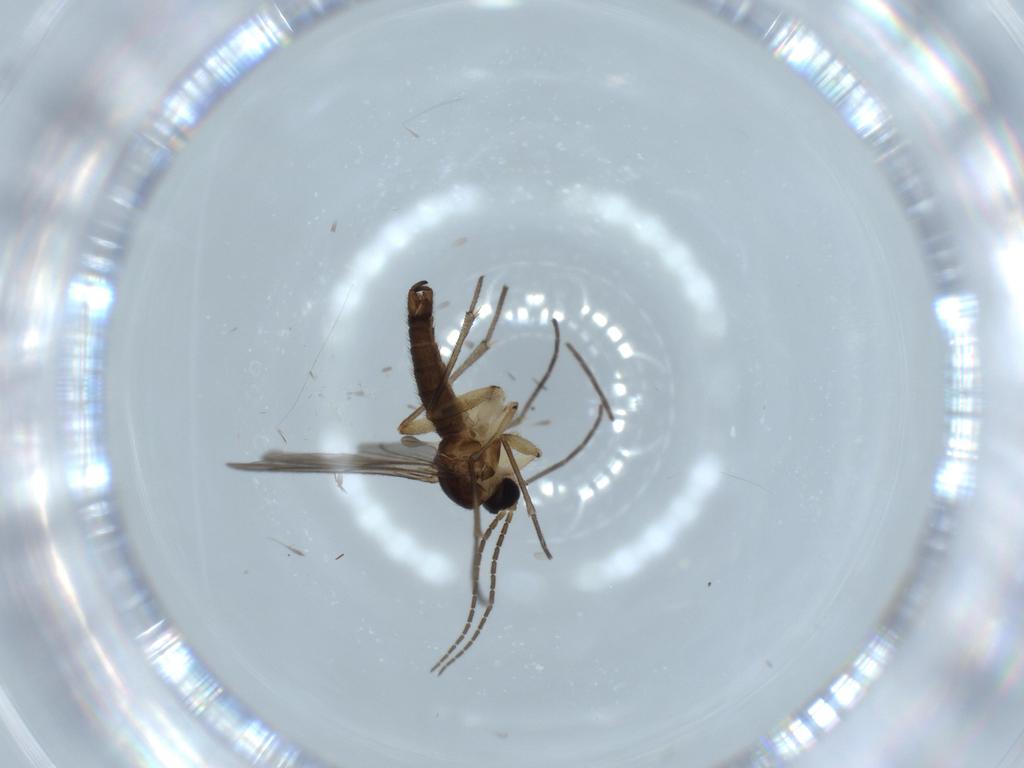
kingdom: Animalia
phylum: Arthropoda
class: Insecta
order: Diptera
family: Sciaridae
